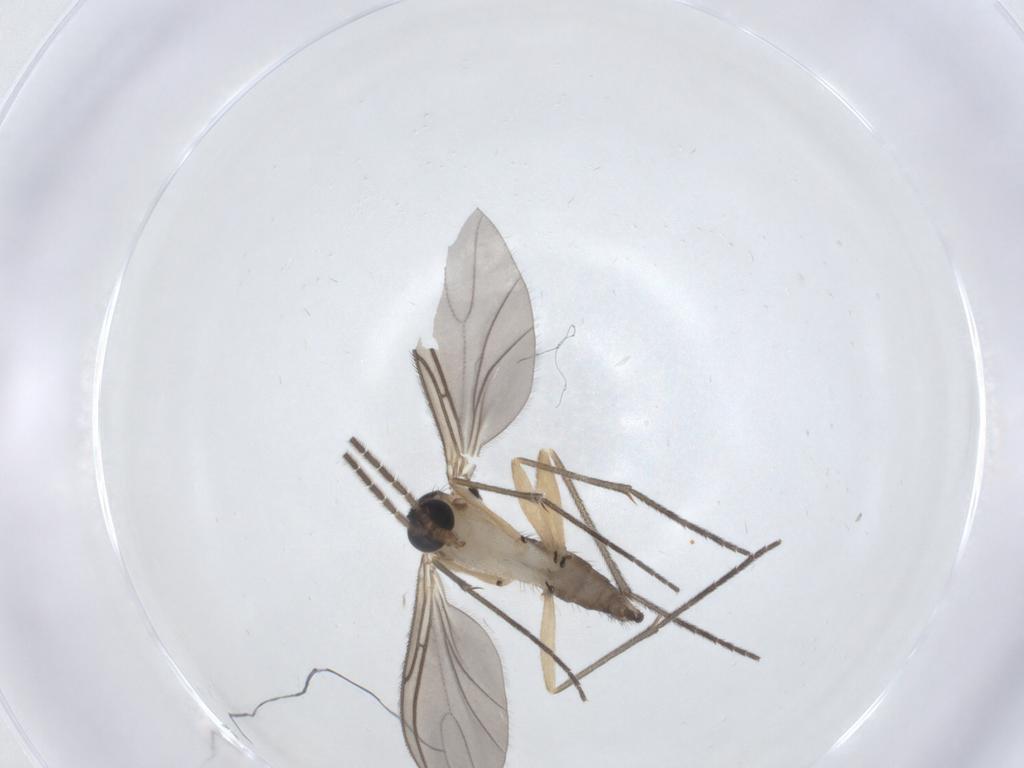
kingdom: Animalia
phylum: Arthropoda
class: Insecta
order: Diptera
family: Sciaridae
